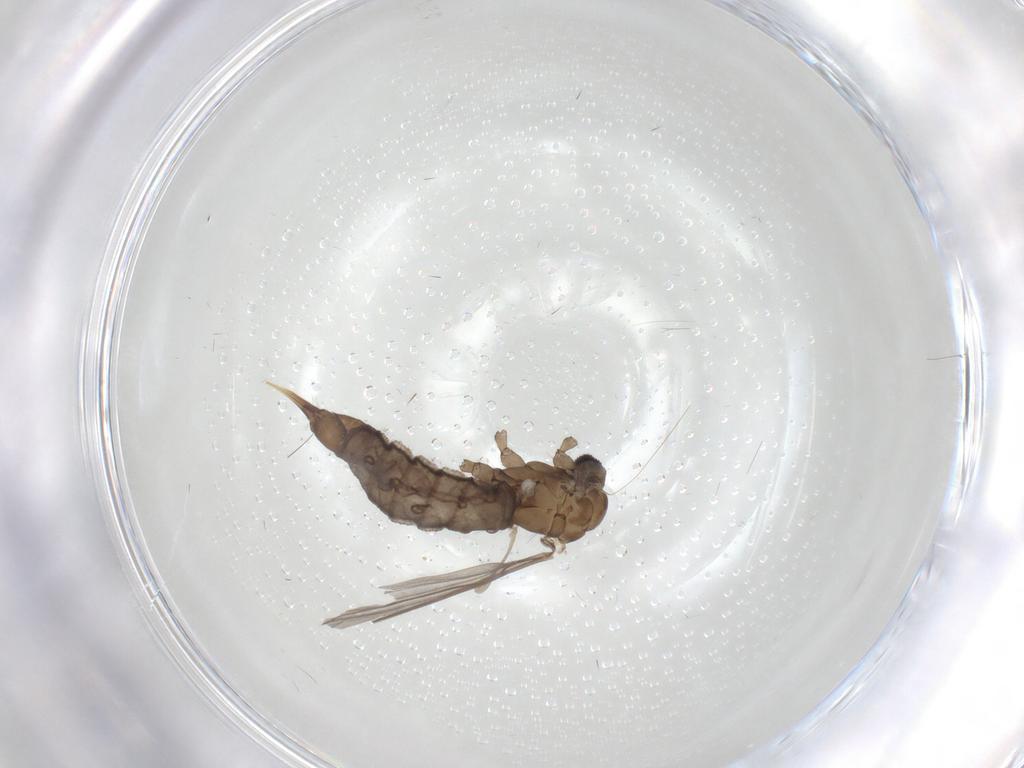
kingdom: Animalia
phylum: Arthropoda
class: Insecta
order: Diptera
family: Limoniidae
